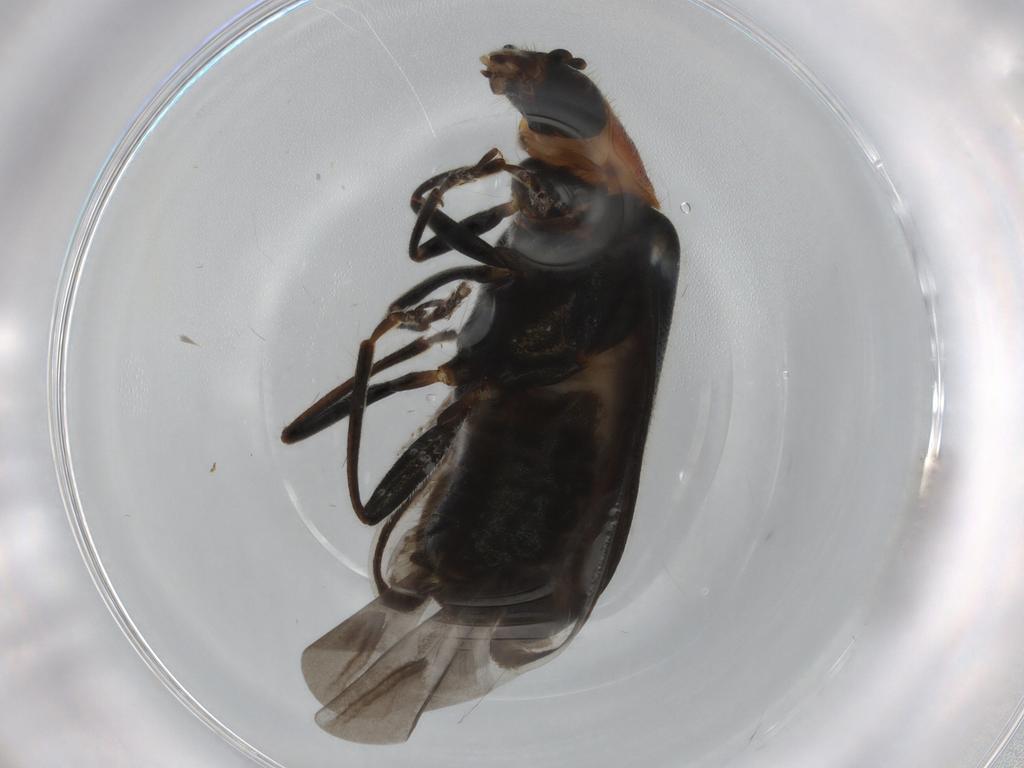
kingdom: Animalia
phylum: Arthropoda
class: Insecta
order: Coleoptera
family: Melyridae
